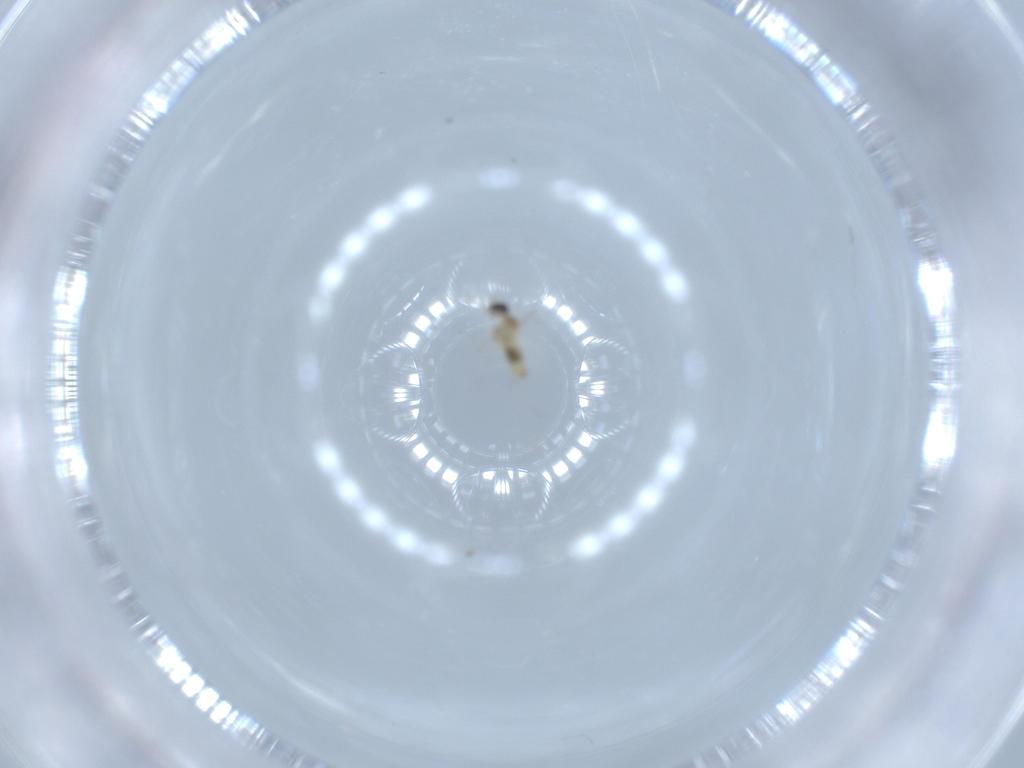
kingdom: Animalia
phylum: Arthropoda
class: Insecta
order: Diptera
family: Cecidomyiidae
